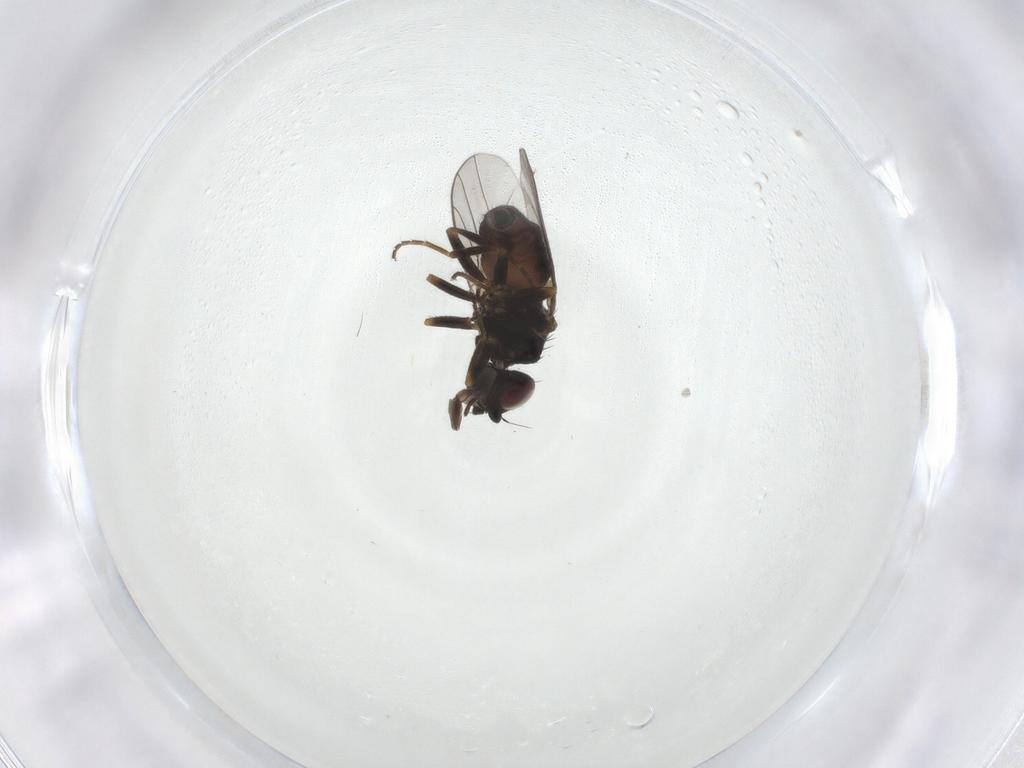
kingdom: Animalia
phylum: Arthropoda
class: Insecta
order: Diptera
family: Chloropidae
